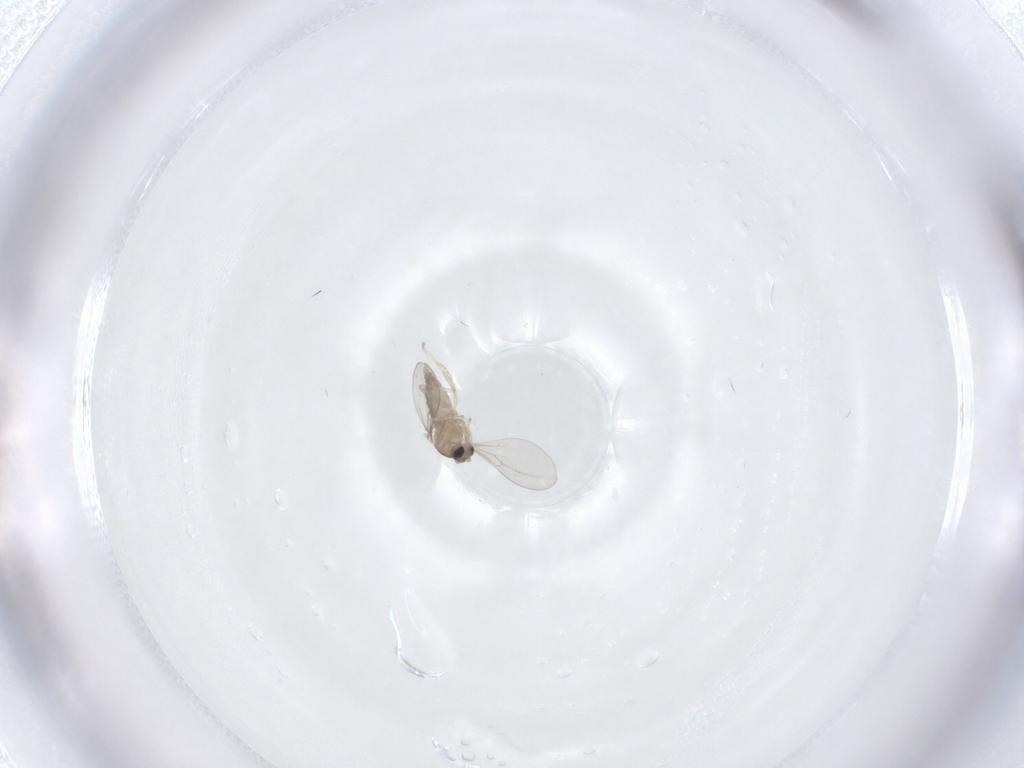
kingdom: Animalia
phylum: Arthropoda
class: Insecta
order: Diptera
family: Cecidomyiidae
